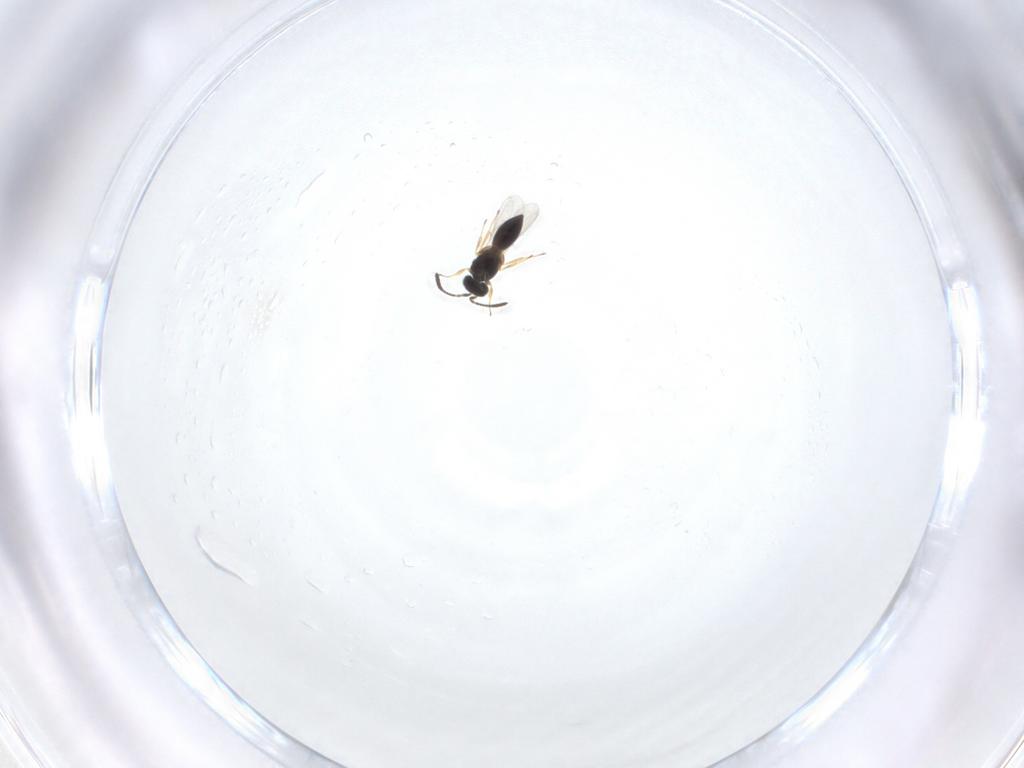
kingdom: Animalia
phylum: Arthropoda
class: Insecta
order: Hymenoptera
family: Scelionidae
